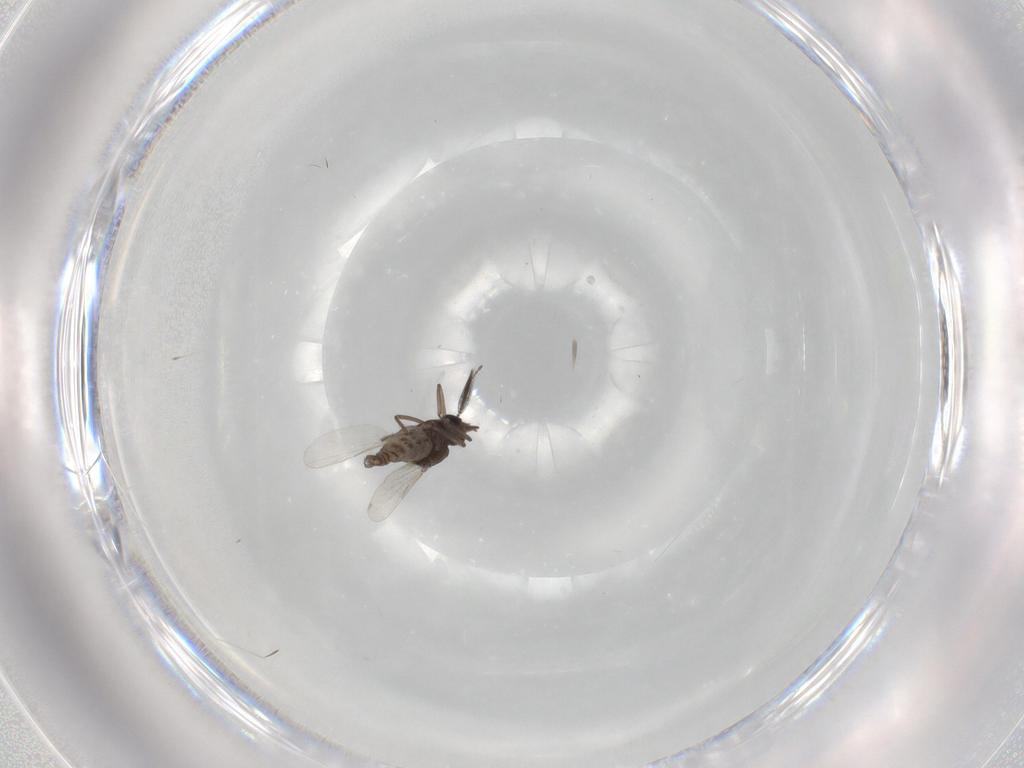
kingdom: Animalia
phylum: Arthropoda
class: Insecta
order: Diptera
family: Ceratopogonidae
